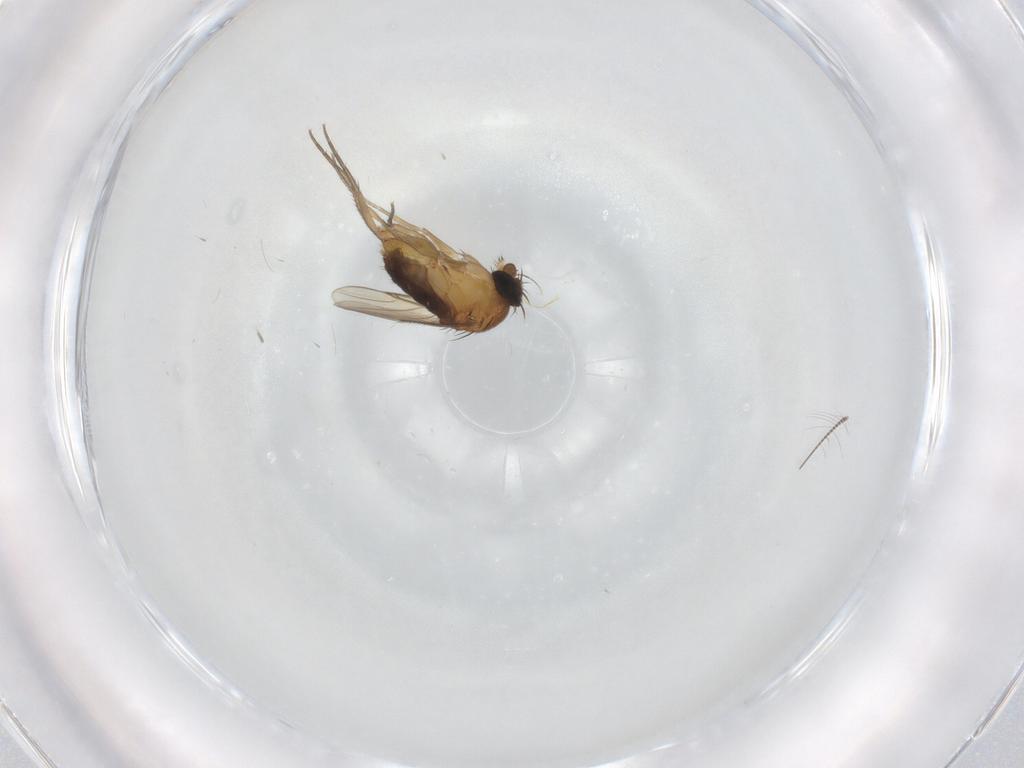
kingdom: Animalia
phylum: Arthropoda
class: Insecta
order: Diptera
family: Phoridae
